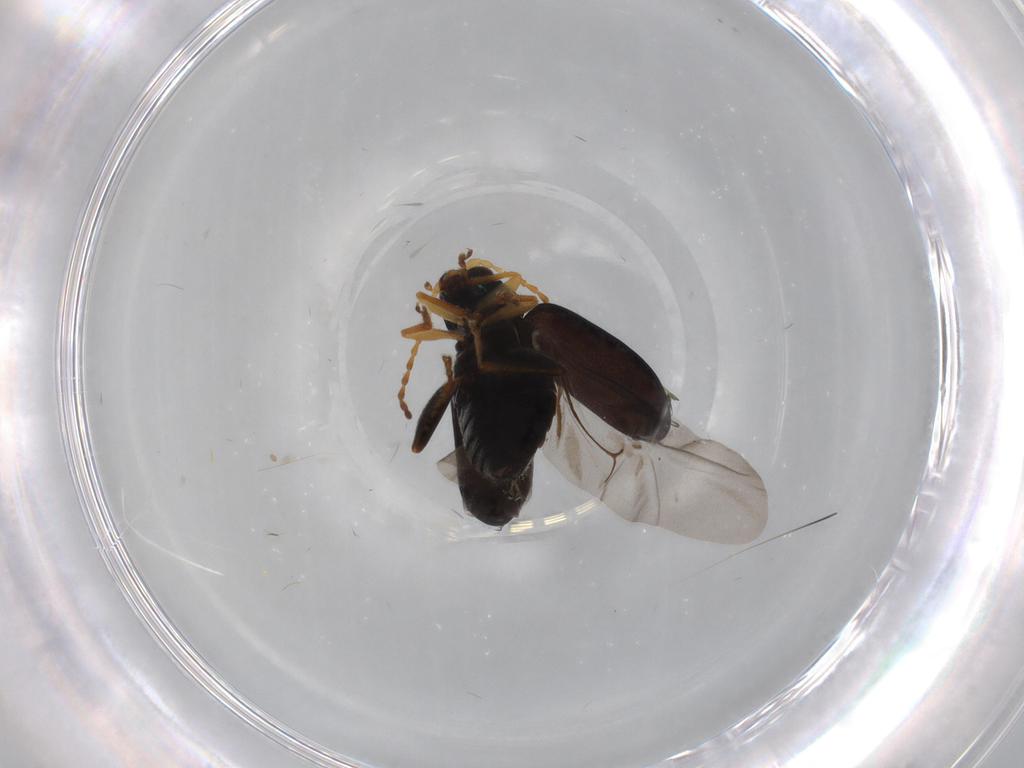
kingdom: Animalia
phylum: Arthropoda
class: Insecta
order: Coleoptera
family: Chrysomelidae
